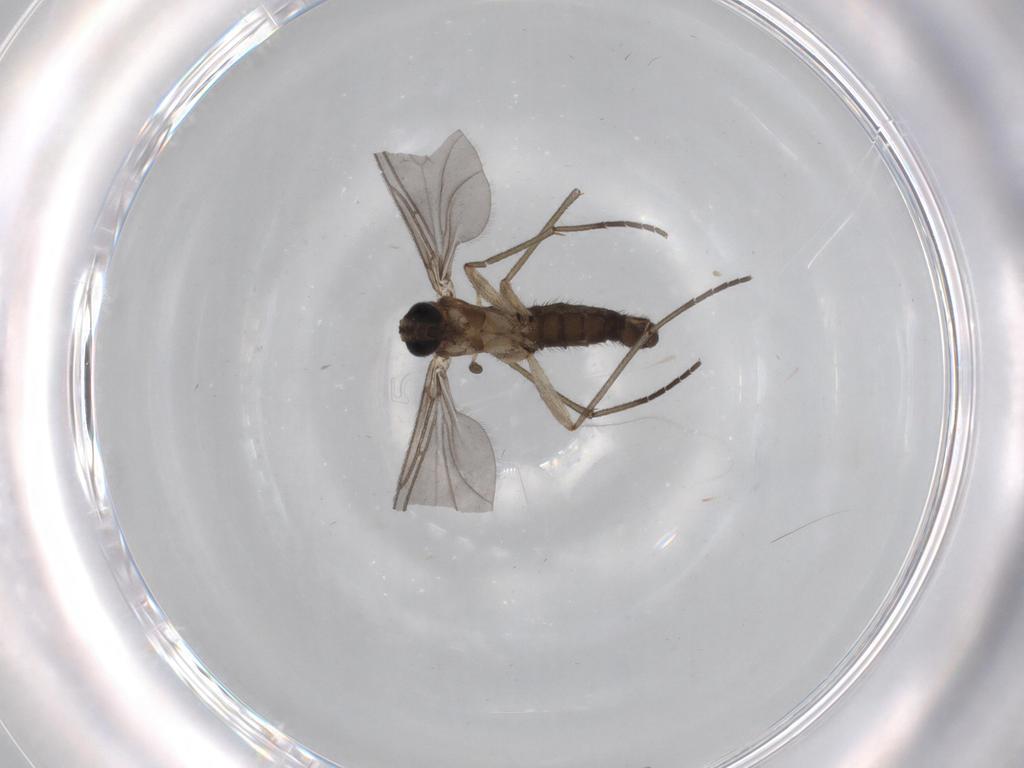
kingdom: Animalia
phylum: Arthropoda
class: Insecta
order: Diptera
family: Sciaridae
